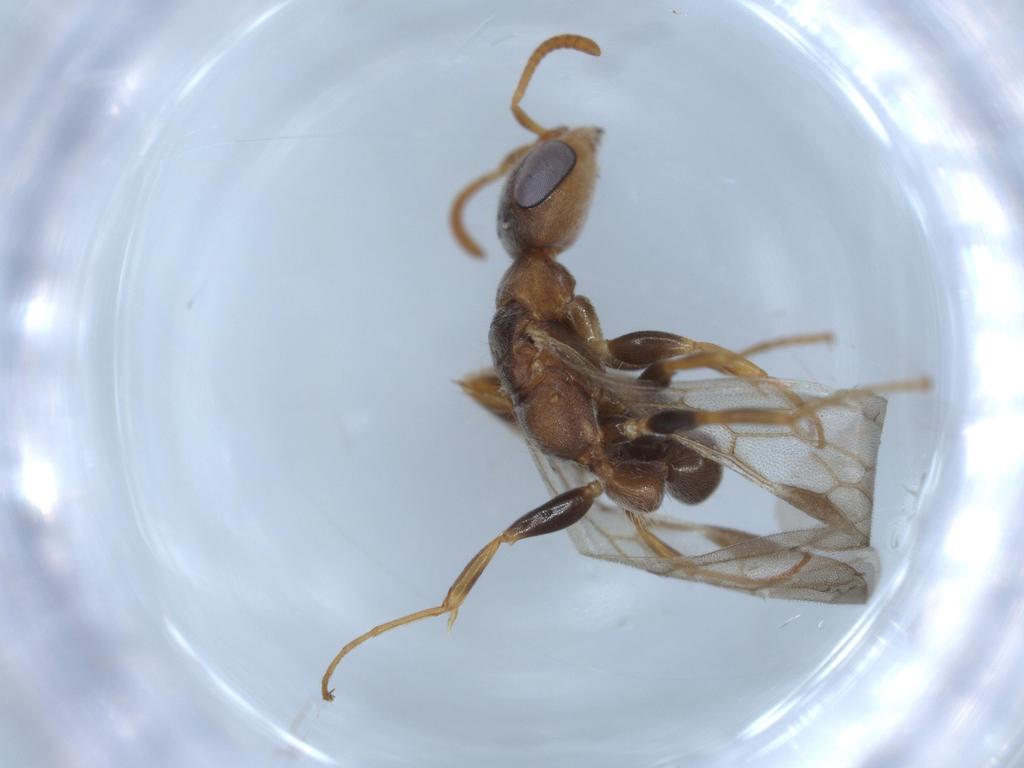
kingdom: Animalia
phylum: Arthropoda
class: Insecta
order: Hymenoptera
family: Formicidae
